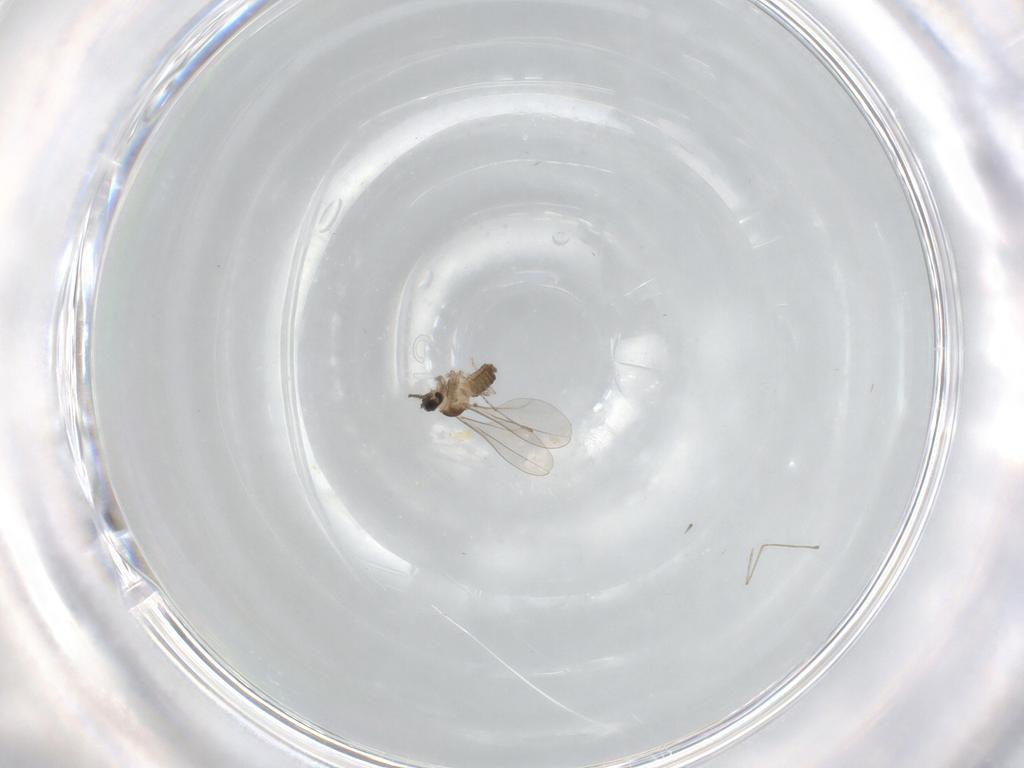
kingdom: Animalia
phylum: Arthropoda
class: Insecta
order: Diptera
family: Cecidomyiidae
